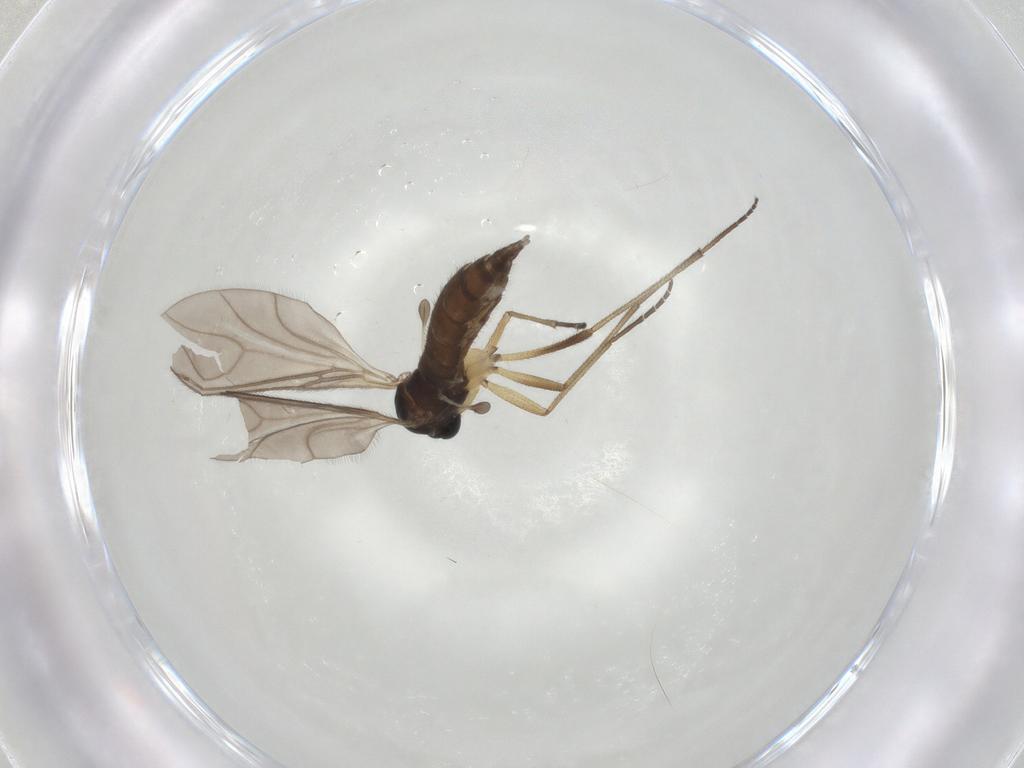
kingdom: Animalia
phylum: Arthropoda
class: Insecta
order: Diptera
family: Sciaridae
